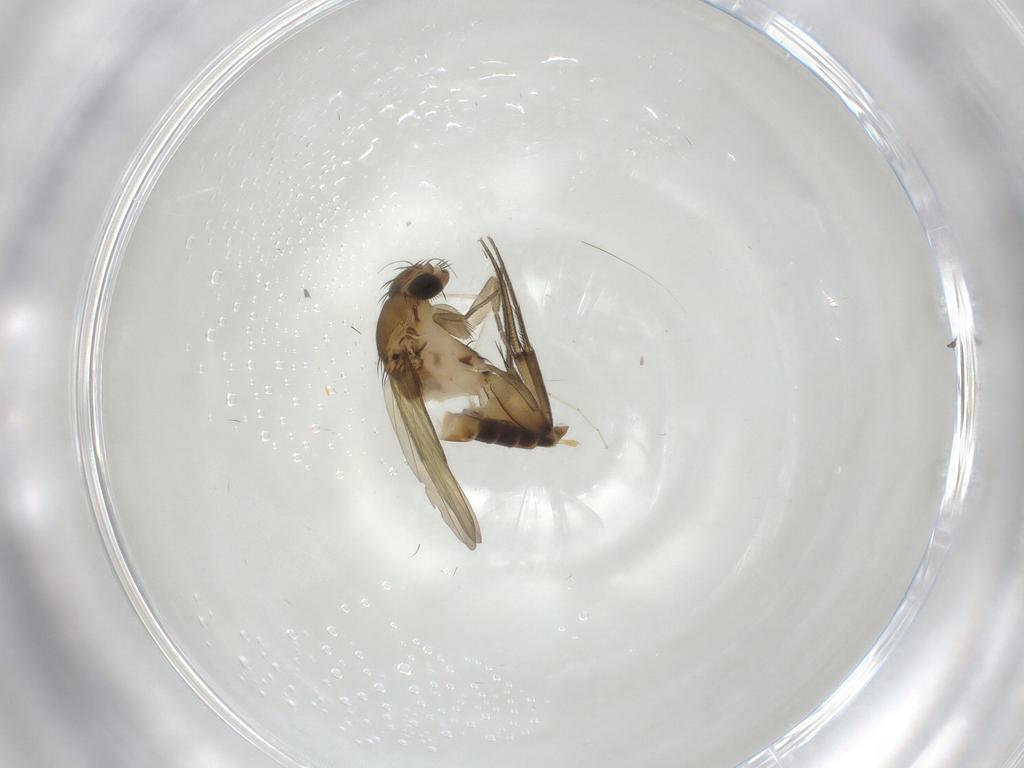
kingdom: Animalia
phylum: Arthropoda
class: Insecta
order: Diptera
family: Phoridae
